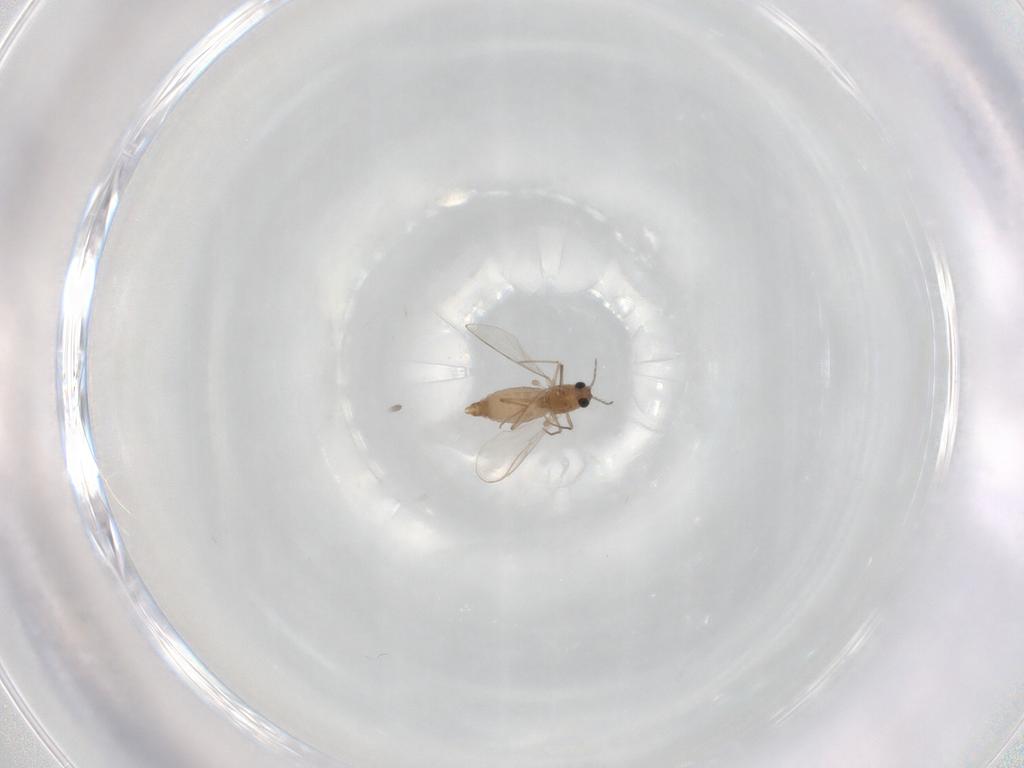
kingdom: Animalia
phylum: Arthropoda
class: Insecta
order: Diptera
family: Chironomidae
